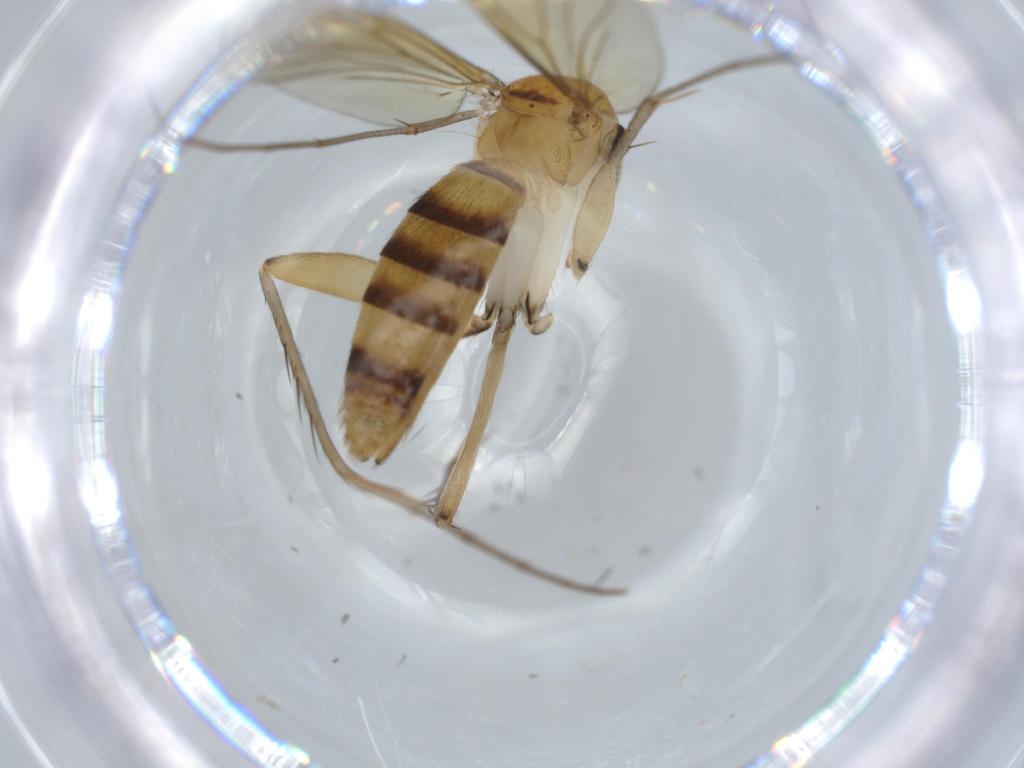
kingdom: Animalia
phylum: Arthropoda
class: Insecta
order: Diptera
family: Mycetophilidae
